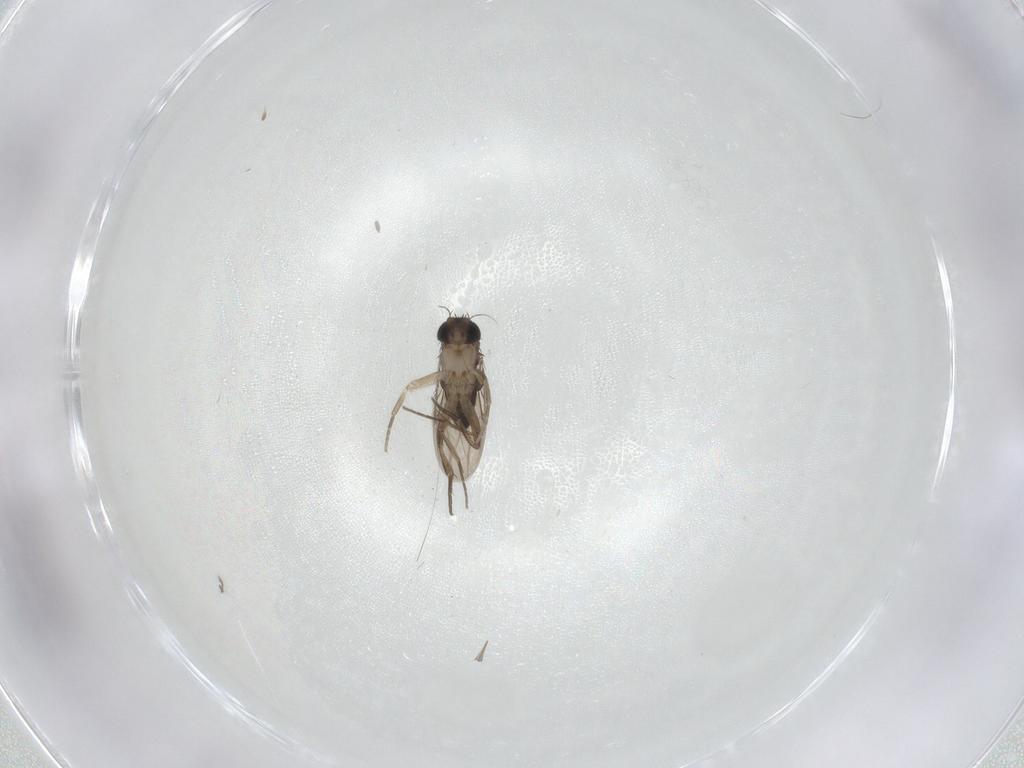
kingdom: Animalia
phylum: Arthropoda
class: Insecta
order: Diptera
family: Phoridae
